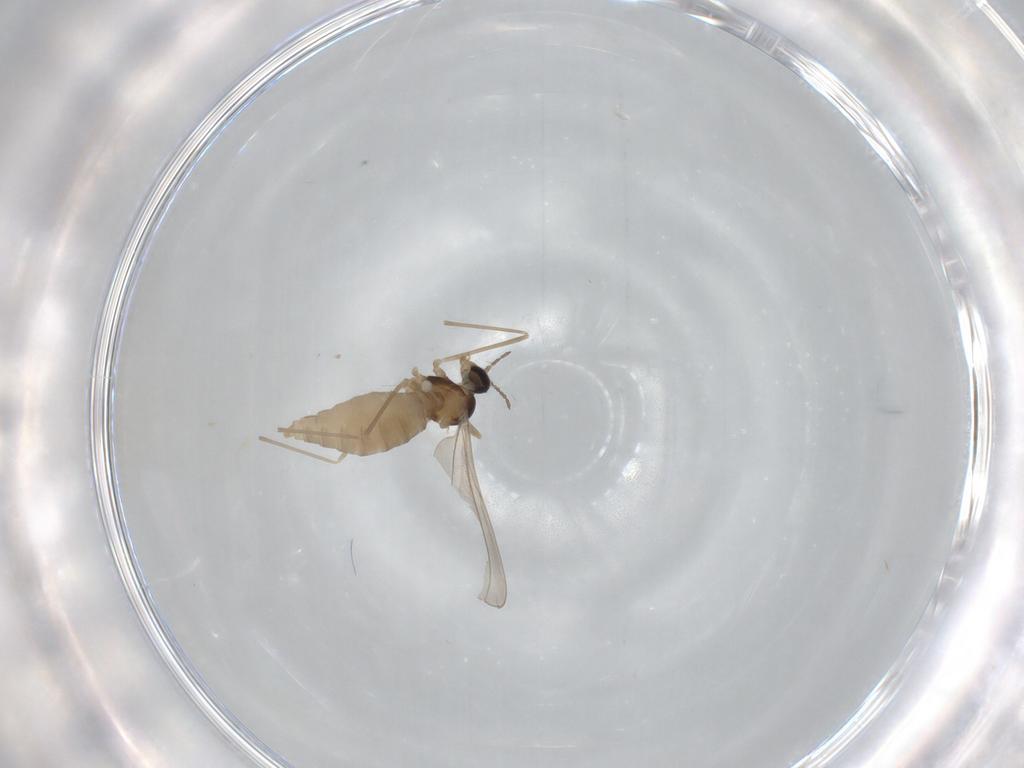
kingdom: Animalia
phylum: Arthropoda
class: Insecta
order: Diptera
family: Cecidomyiidae
